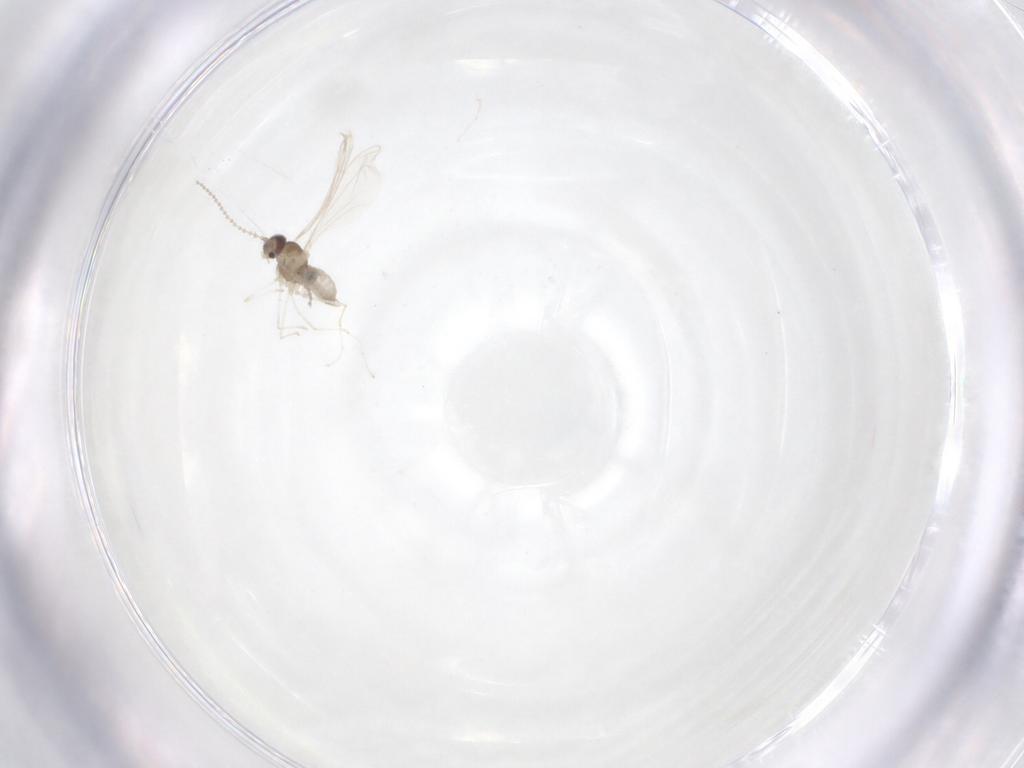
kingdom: Animalia
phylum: Arthropoda
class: Insecta
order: Diptera
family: Cecidomyiidae
